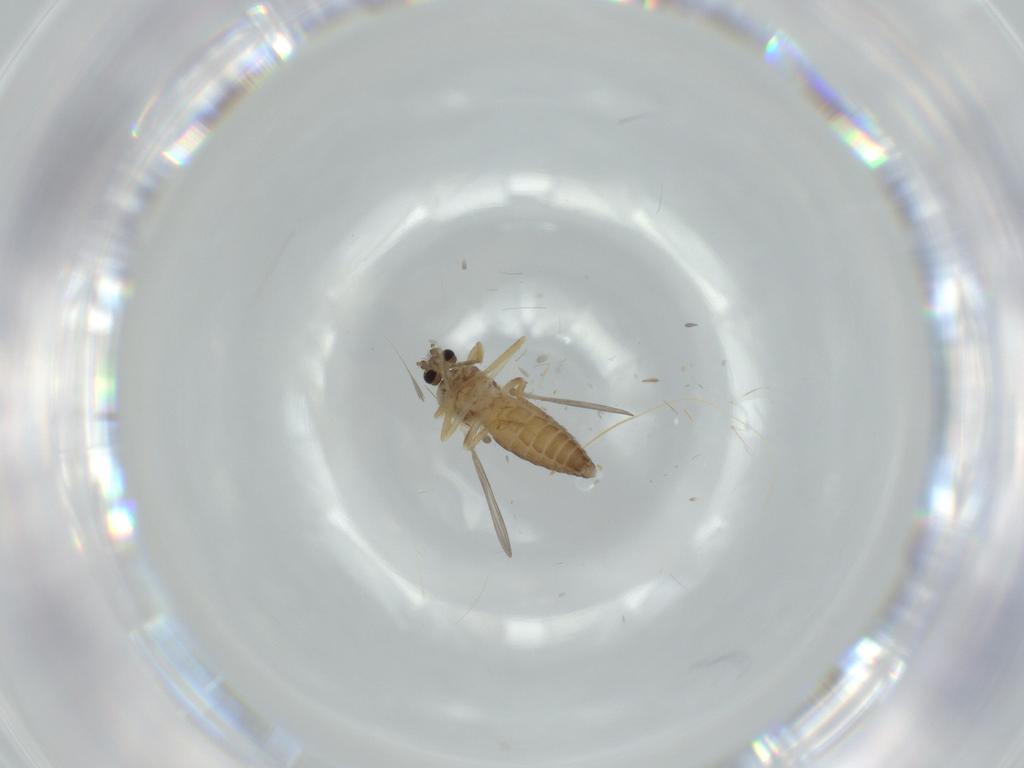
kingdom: Animalia
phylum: Arthropoda
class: Insecta
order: Diptera
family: Ceratopogonidae
